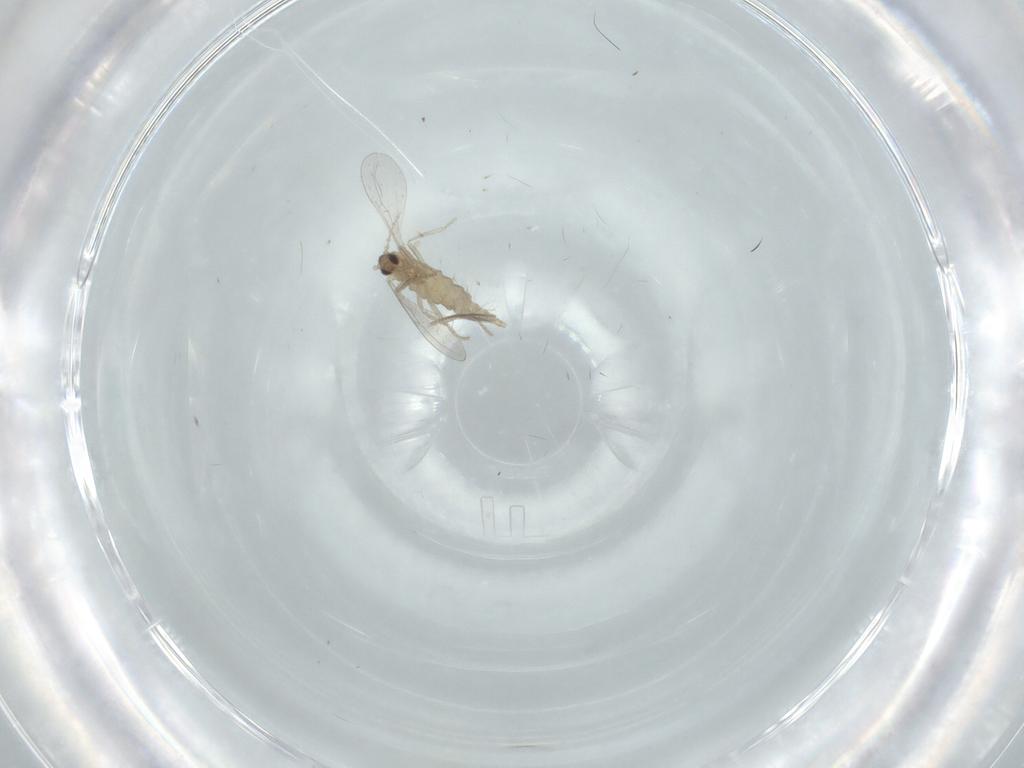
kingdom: Animalia
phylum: Arthropoda
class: Insecta
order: Diptera
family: Cecidomyiidae
